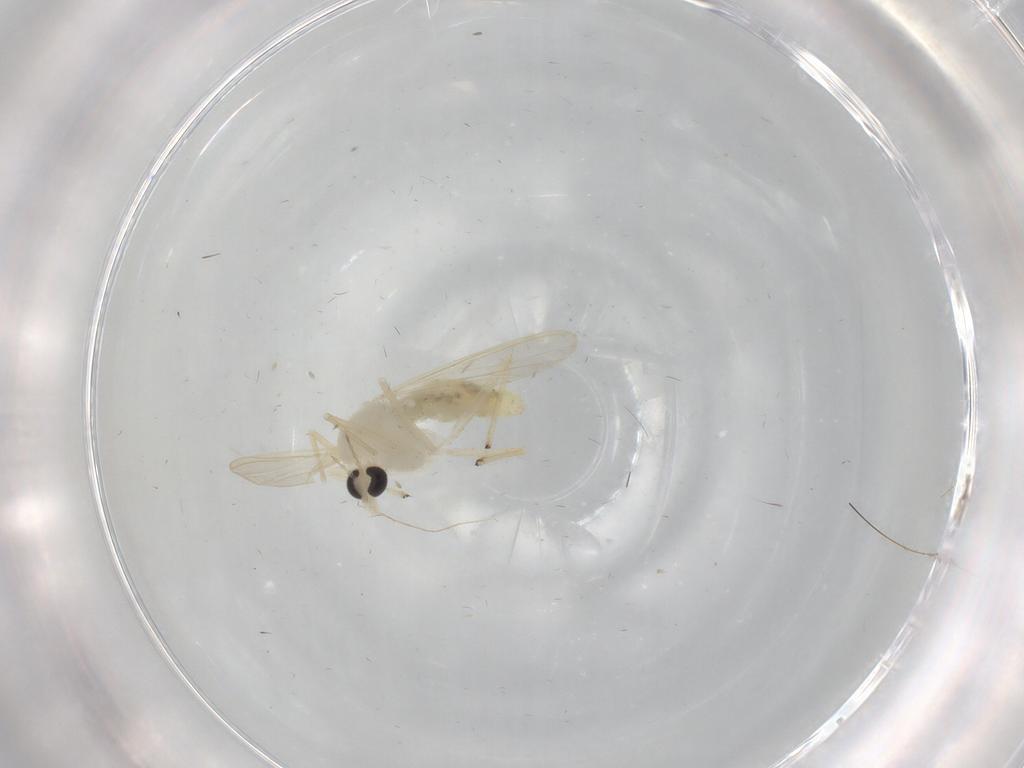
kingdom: Animalia
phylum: Arthropoda
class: Insecta
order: Diptera
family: Chironomidae
